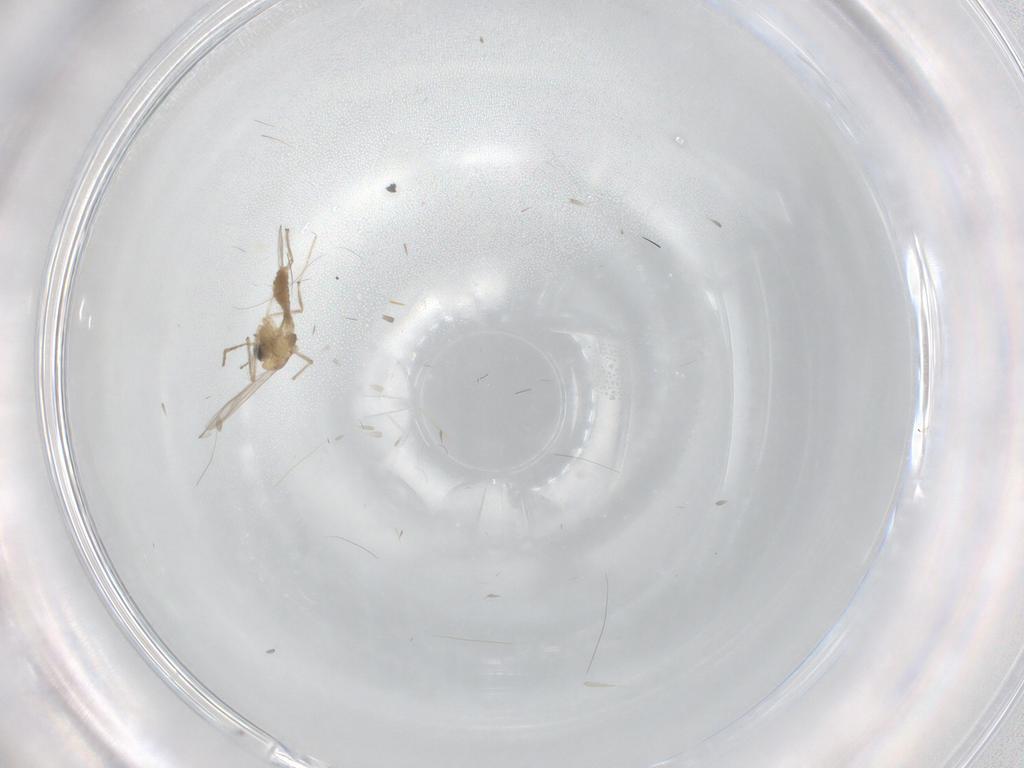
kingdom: Animalia
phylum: Arthropoda
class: Insecta
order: Diptera
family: Chironomidae
